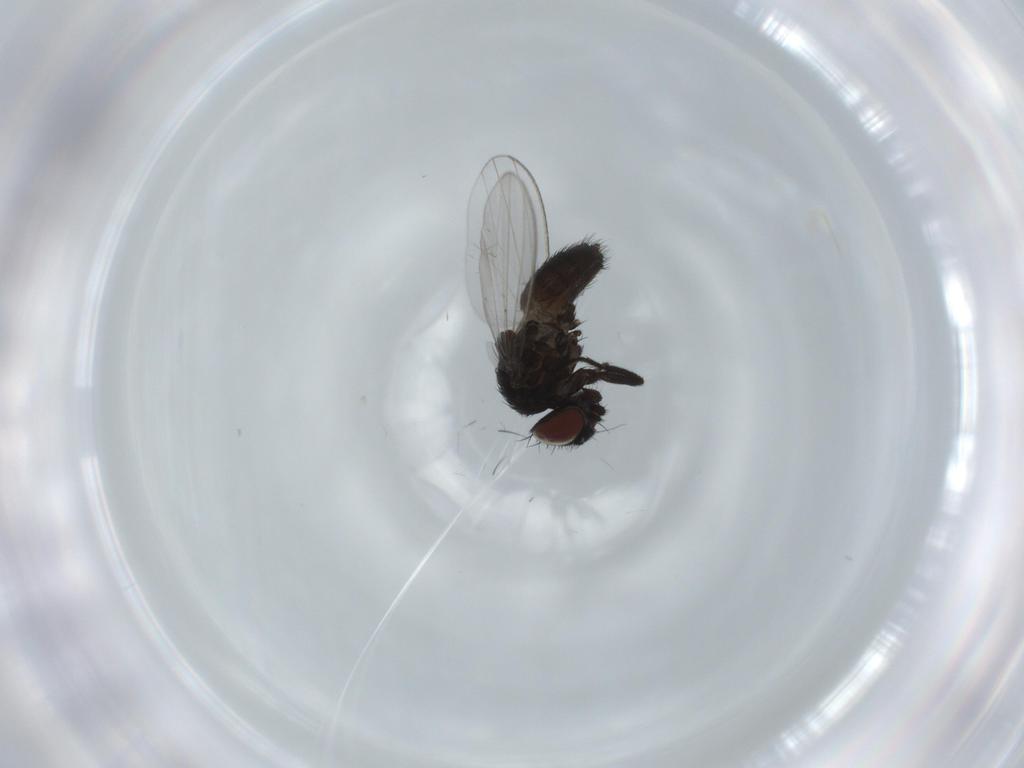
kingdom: Animalia
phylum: Arthropoda
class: Insecta
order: Diptera
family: Milichiidae
